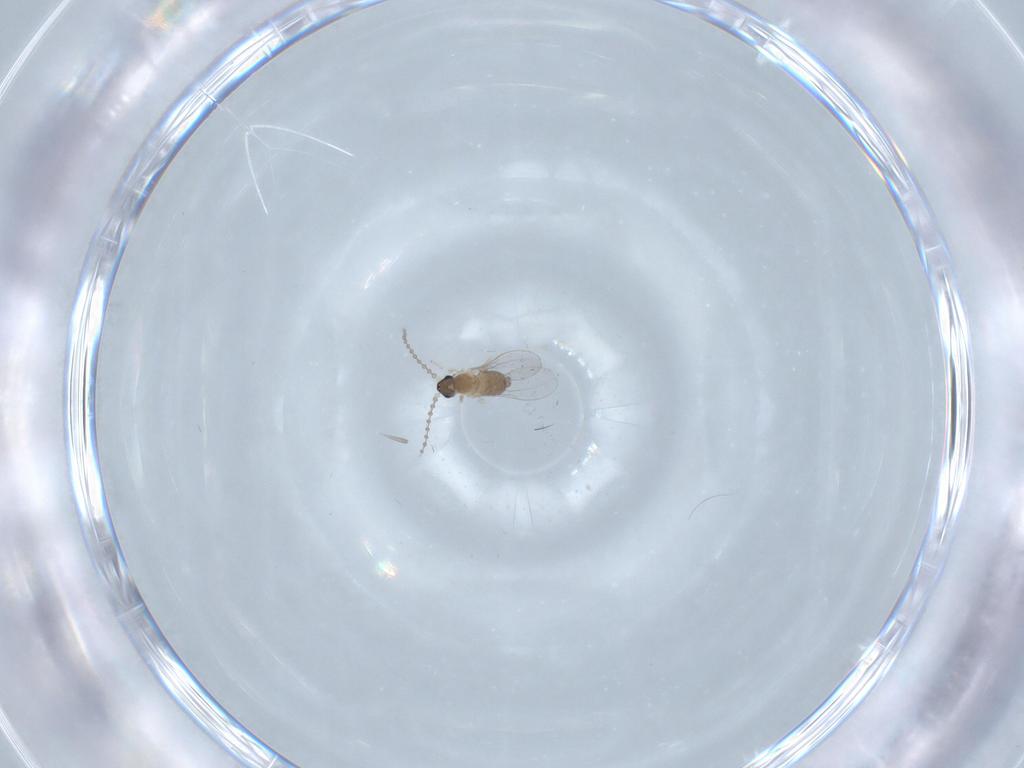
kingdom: Animalia
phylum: Arthropoda
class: Insecta
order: Diptera
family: Cecidomyiidae
